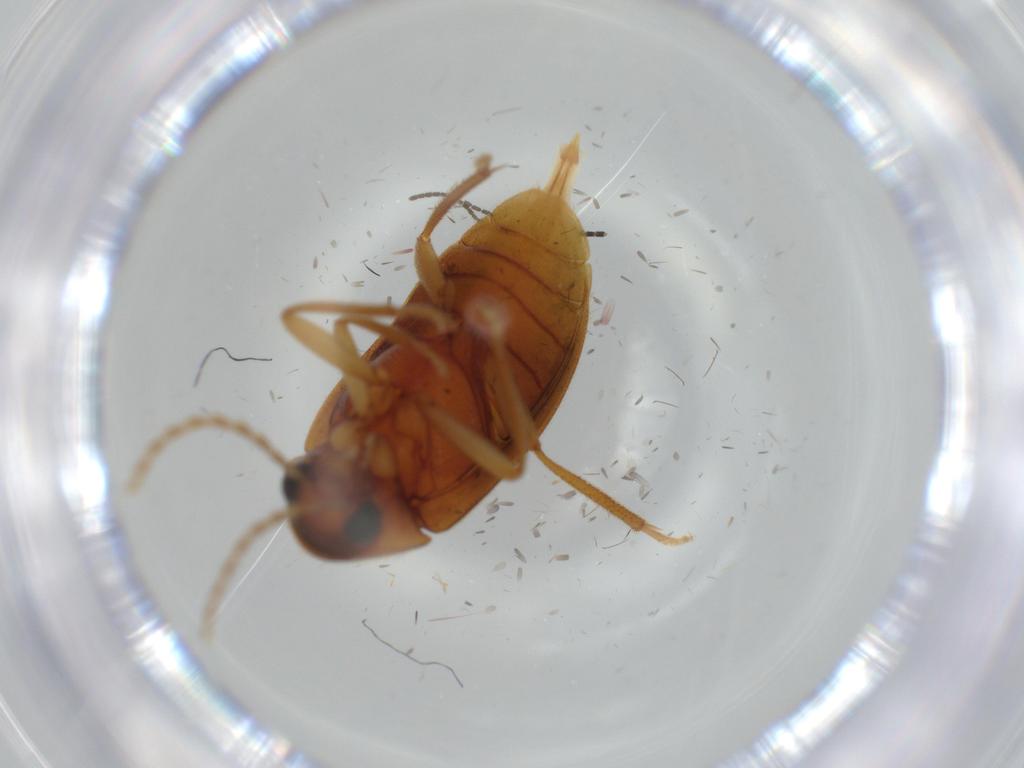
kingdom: Animalia
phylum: Arthropoda
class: Insecta
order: Coleoptera
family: Ptilodactylidae
